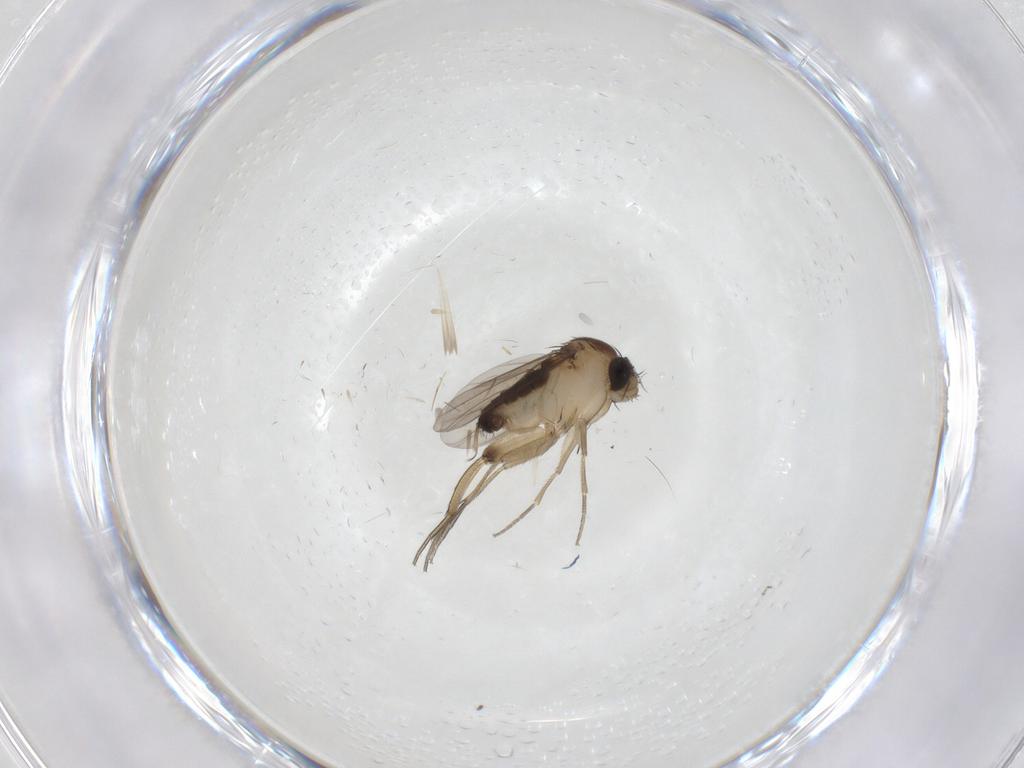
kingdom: Animalia
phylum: Arthropoda
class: Insecta
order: Diptera
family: Phoridae
